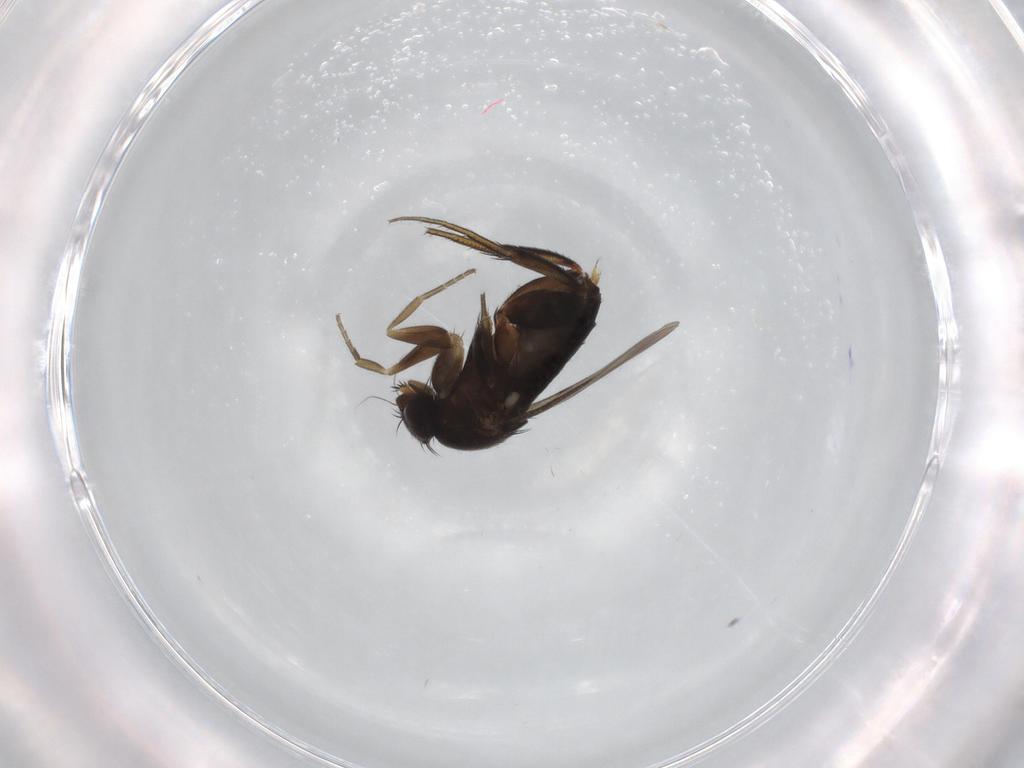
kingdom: Animalia
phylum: Arthropoda
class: Insecta
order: Diptera
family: Phoridae
